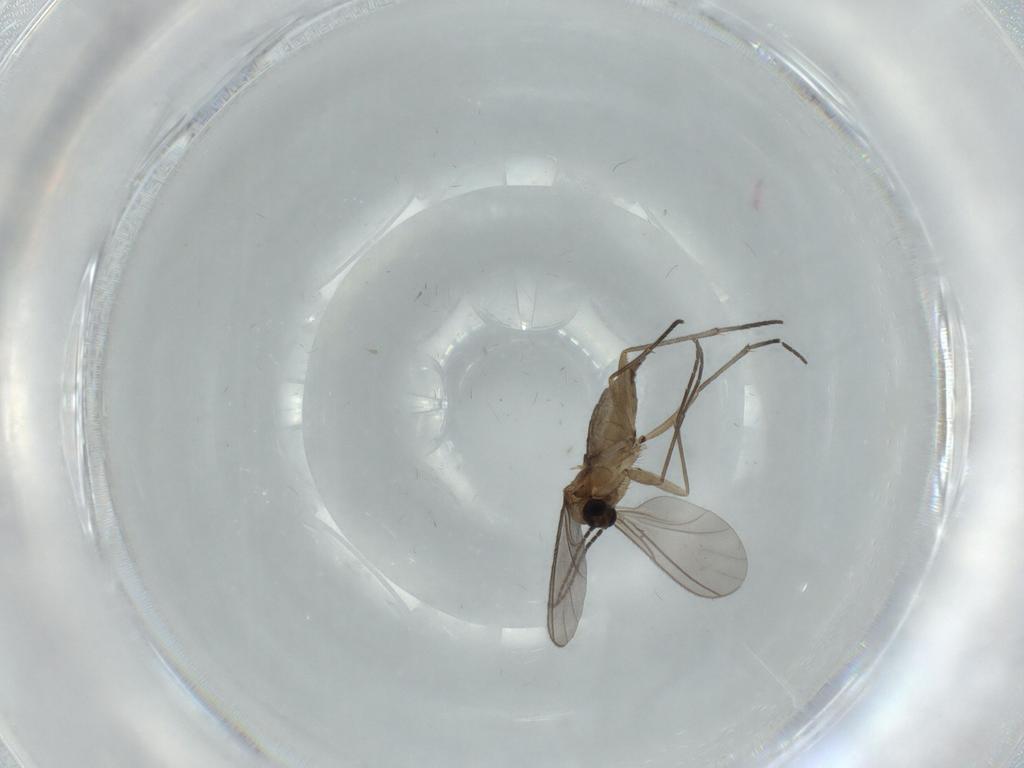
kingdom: Animalia
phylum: Arthropoda
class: Insecta
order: Diptera
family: Sciaridae
